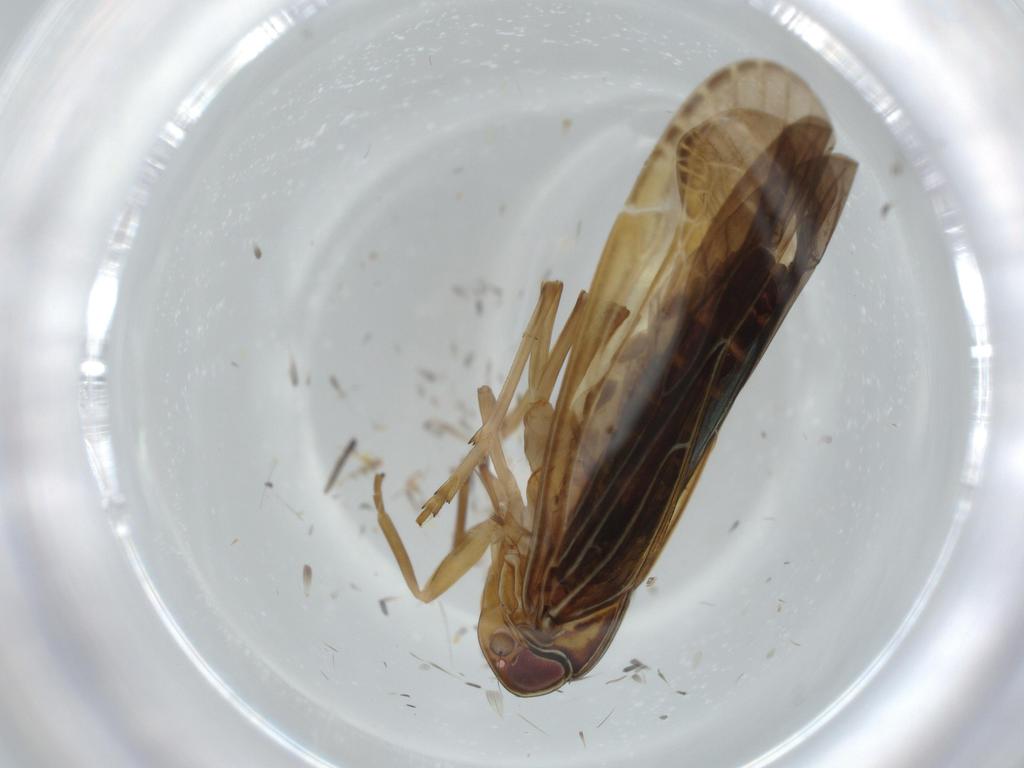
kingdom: Animalia
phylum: Arthropoda
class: Insecta
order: Hemiptera
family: Achilidae
